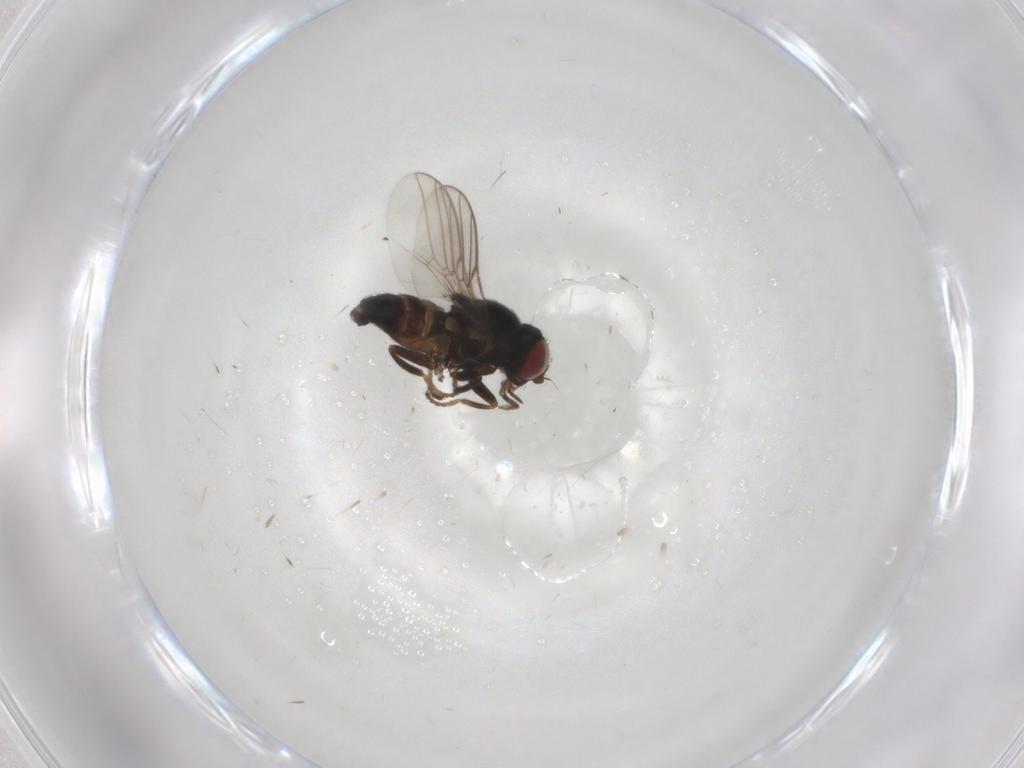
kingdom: Animalia
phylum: Arthropoda
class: Insecta
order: Diptera
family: Chloropidae
